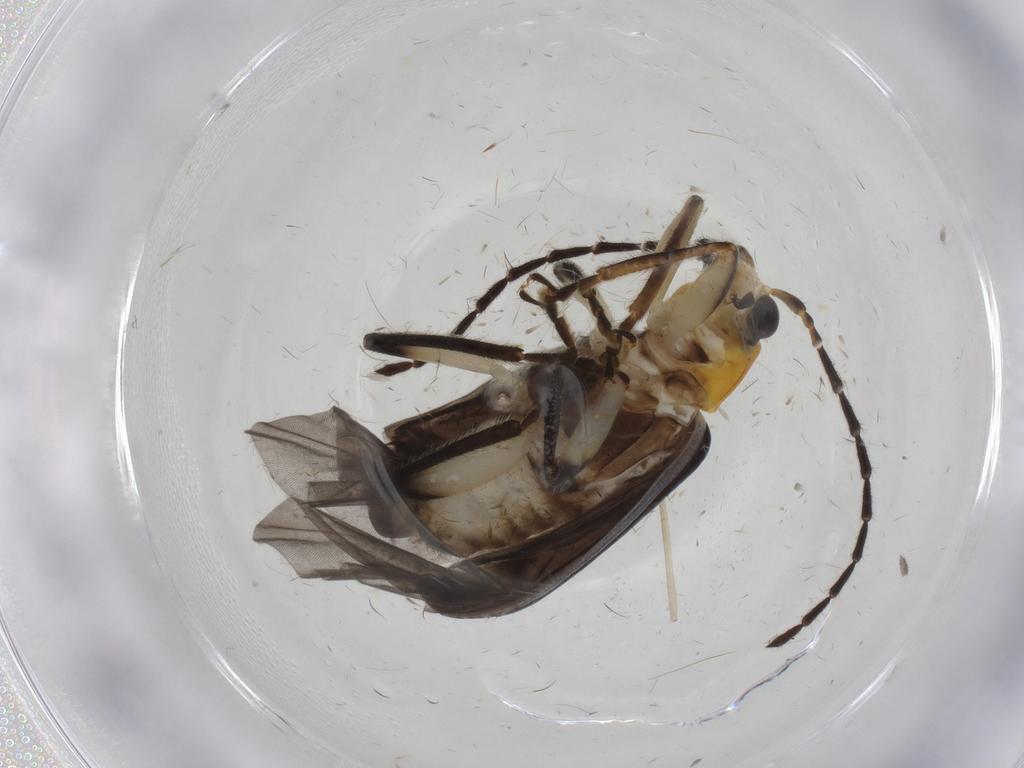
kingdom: Animalia
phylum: Arthropoda
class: Insecta
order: Coleoptera
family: Chrysomelidae
